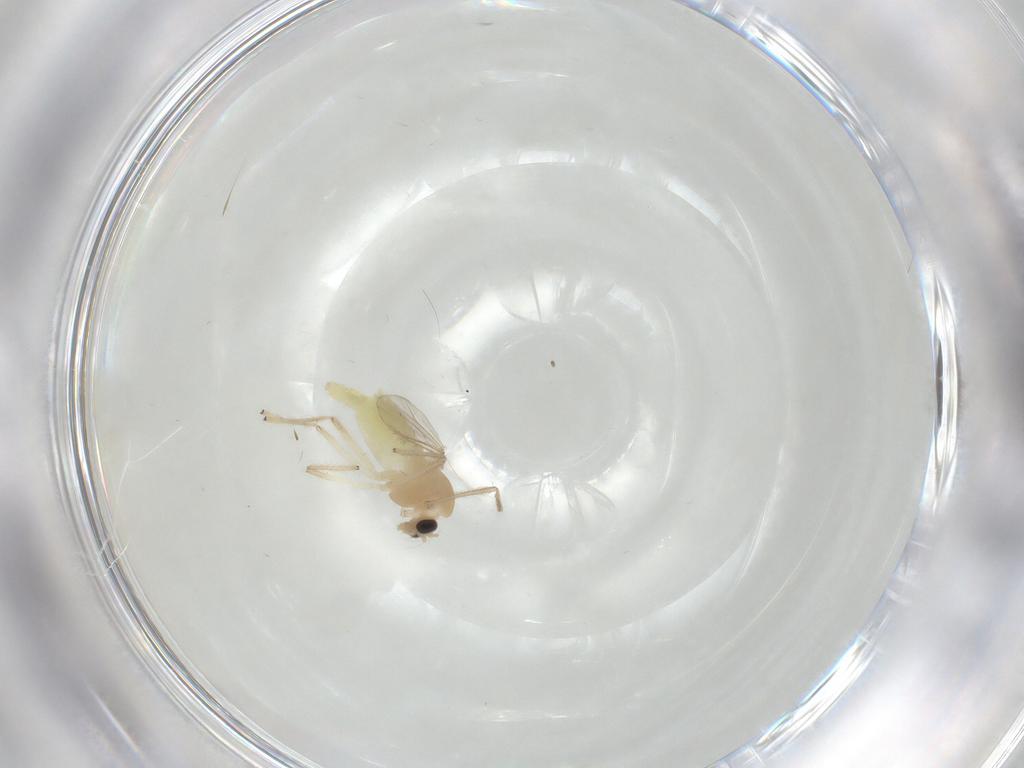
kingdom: Animalia
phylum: Arthropoda
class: Insecta
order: Diptera
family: Chironomidae
